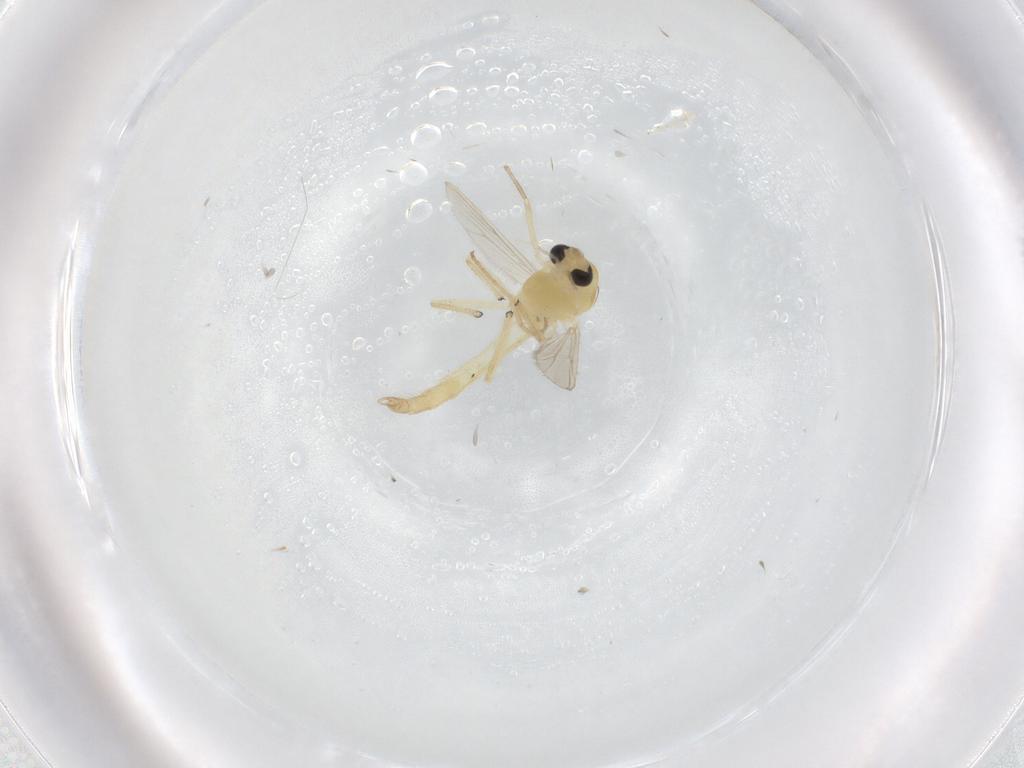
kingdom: Animalia
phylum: Arthropoda
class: Insecta
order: Diptera
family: Chironomidae
